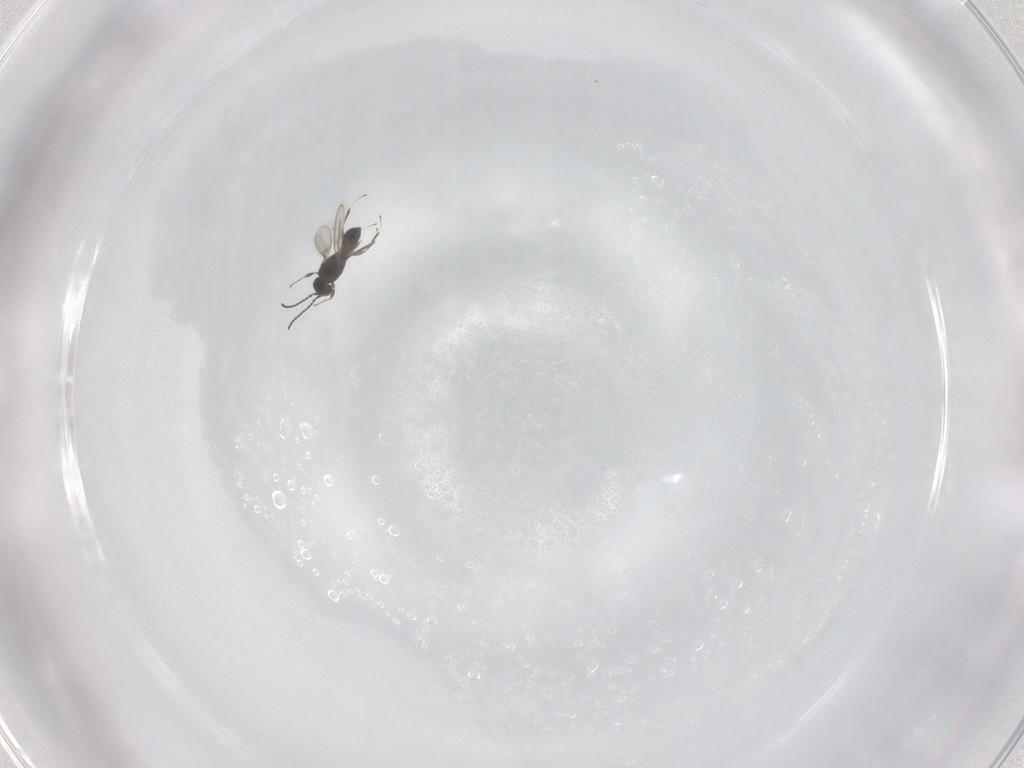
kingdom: Animalia
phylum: Arthropoda
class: Insecta
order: Hymenoptera
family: Scelionidae
